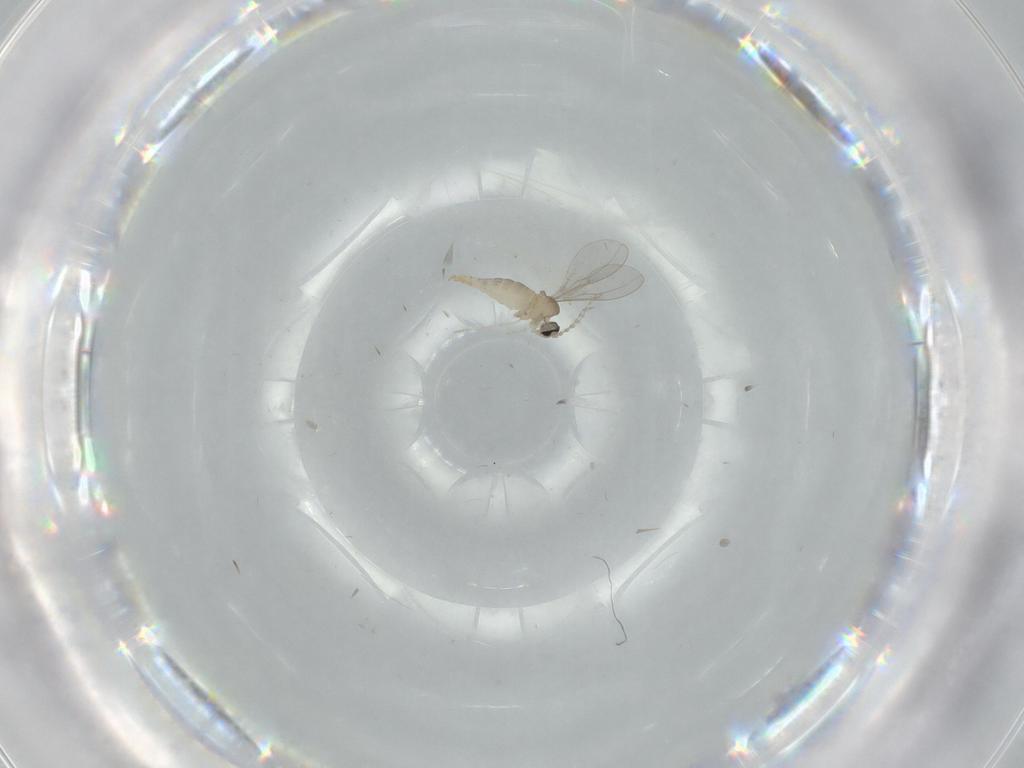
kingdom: Animalia
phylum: Arthropoda
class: Insecta
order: Diptera
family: Cecidomyiidae
